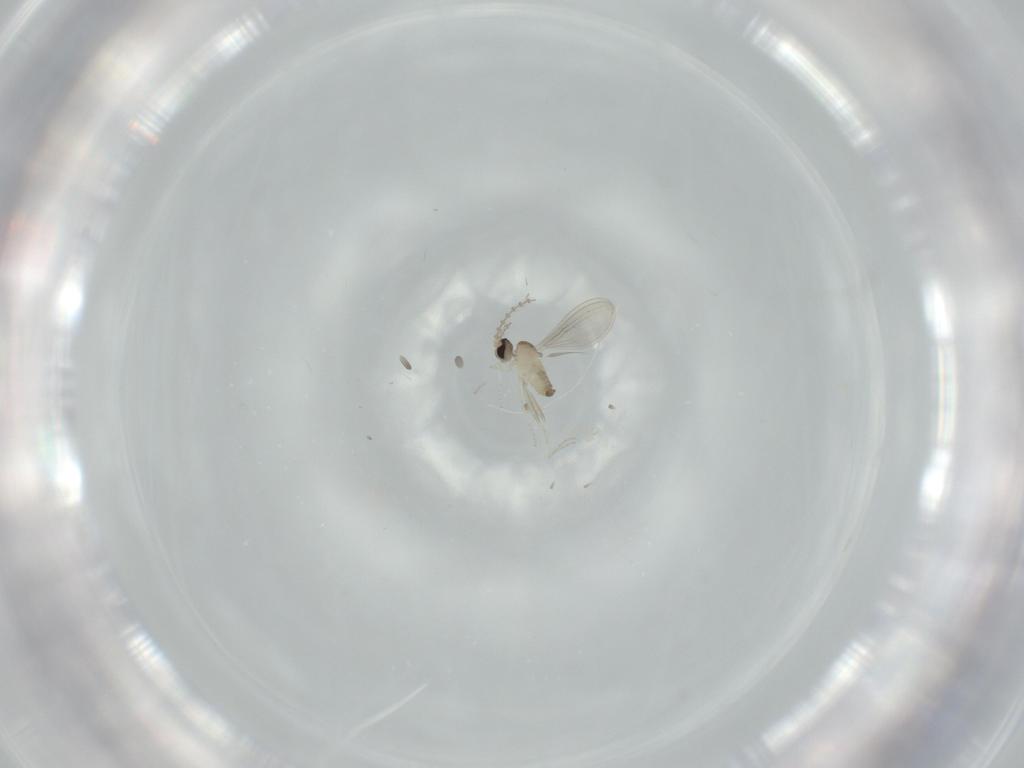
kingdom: Animalia
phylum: Arthropoda
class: Insecta
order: Diptera
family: Cecidomyiidae
